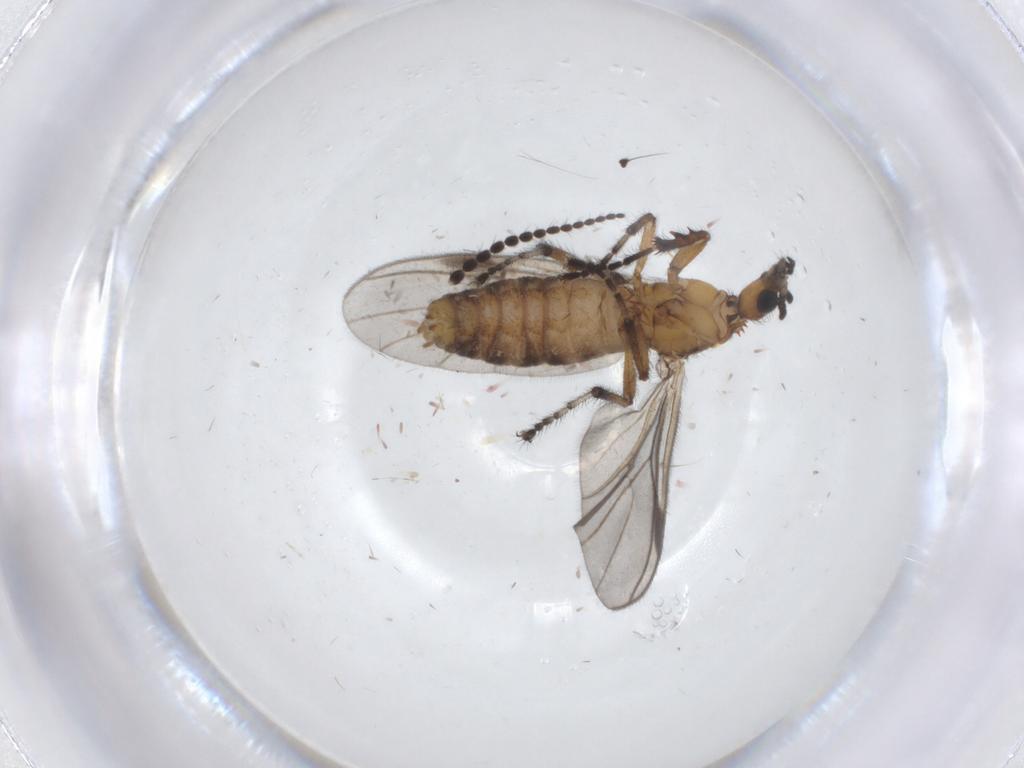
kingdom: Animalia
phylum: Arthropoda
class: Insecta
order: Diptera
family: Bibionidae
